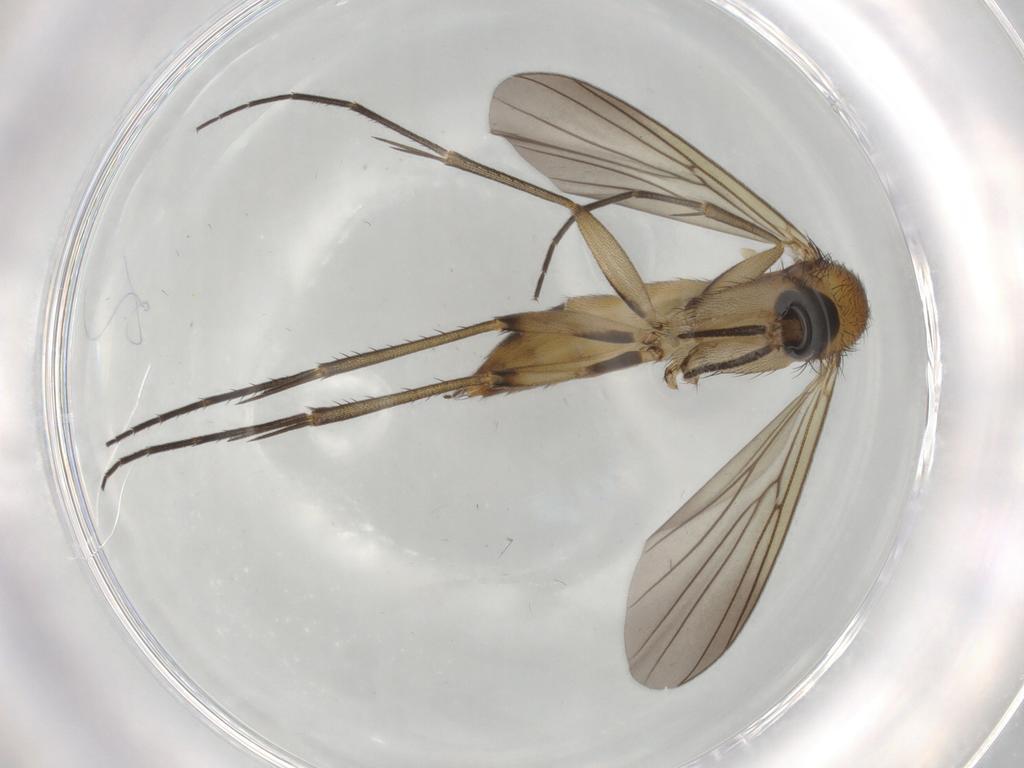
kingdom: Animalia
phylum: Arthropoda
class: Insecta
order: Diptera
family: Mycetophilidae
